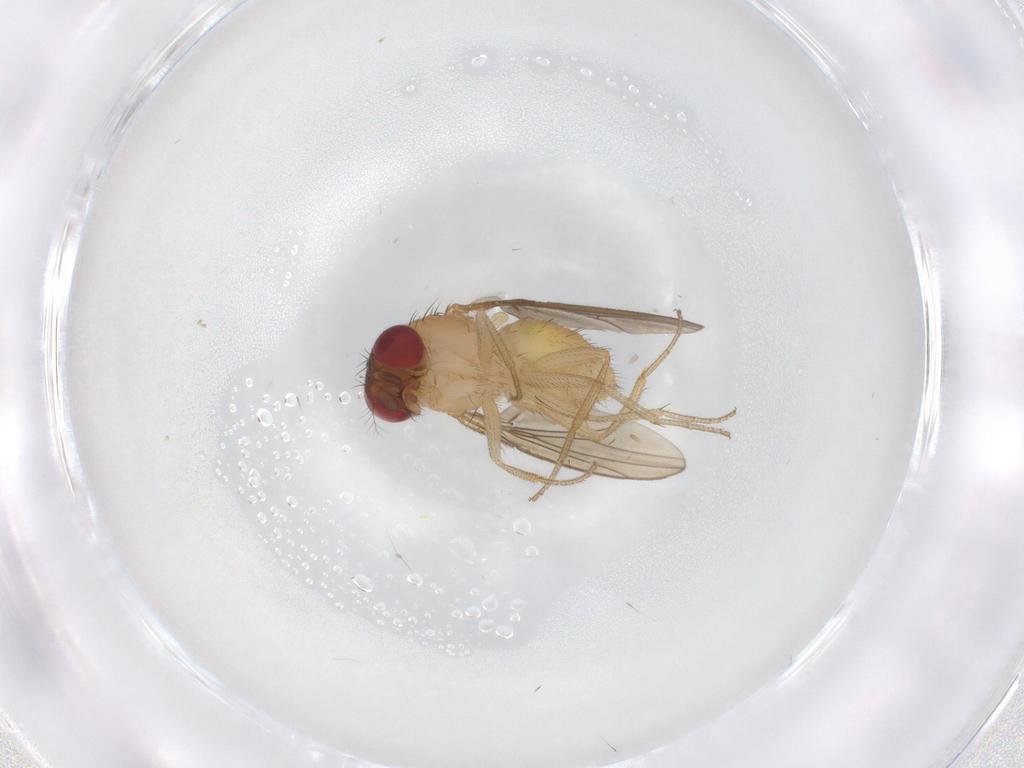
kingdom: Animalia
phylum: Arthropoda
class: Insecta
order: Diptera
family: Drosophilidae
